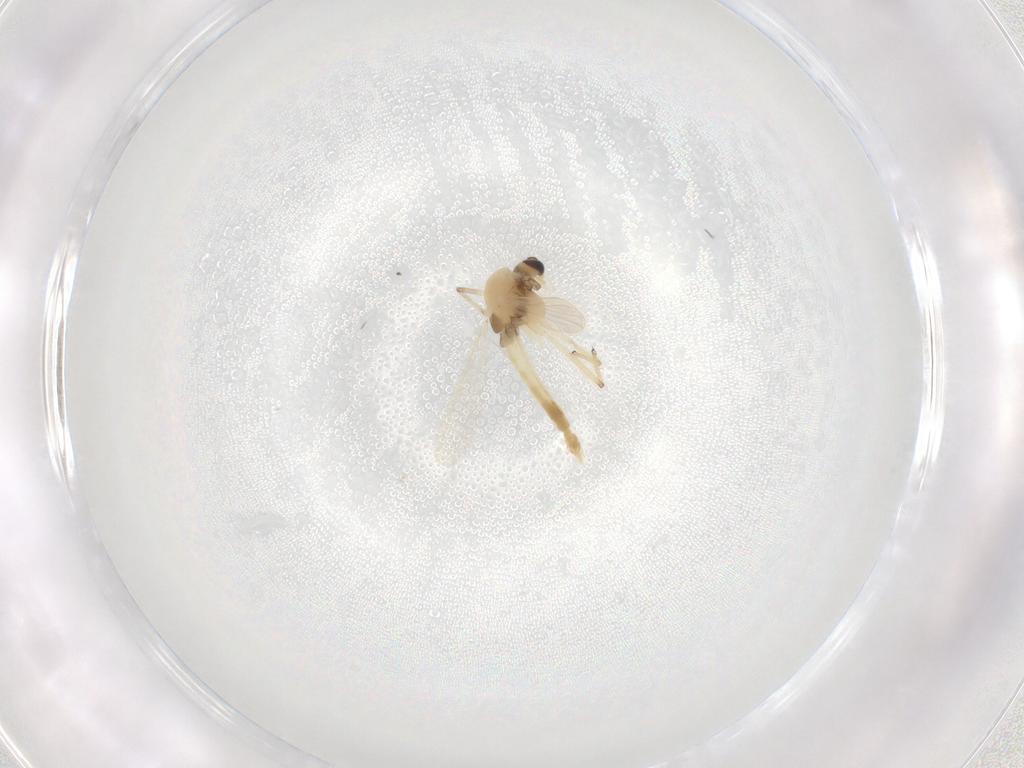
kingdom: Animalia
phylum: Arthropoda
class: Insecta
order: Diptera
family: Chironomidae
